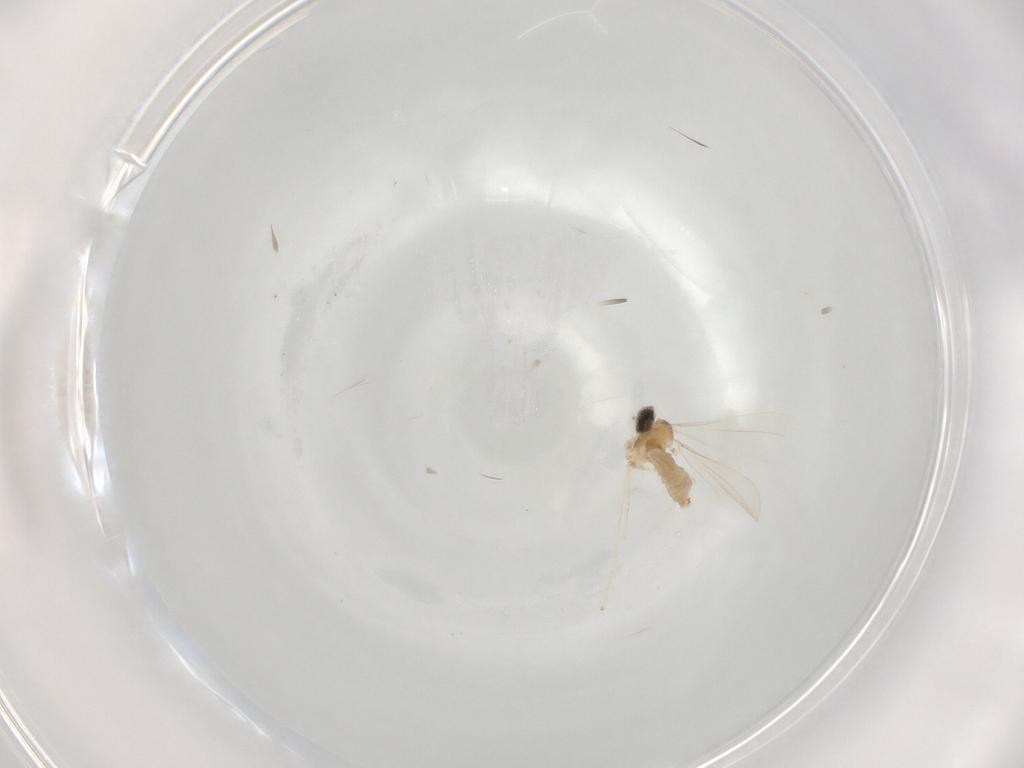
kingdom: Animalia
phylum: Arthropoda
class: Insecta
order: Diptera
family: Cecidomyiidae
